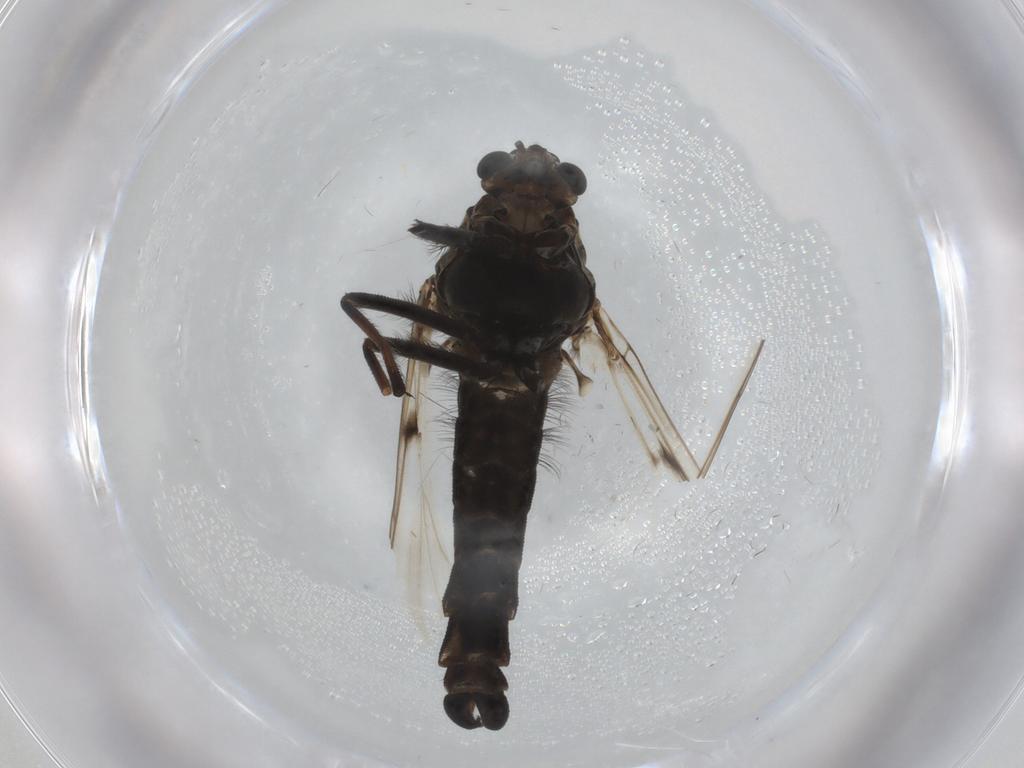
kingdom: Animalia
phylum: Arthropoda
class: Insecta
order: Diptera
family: Chironomidae
